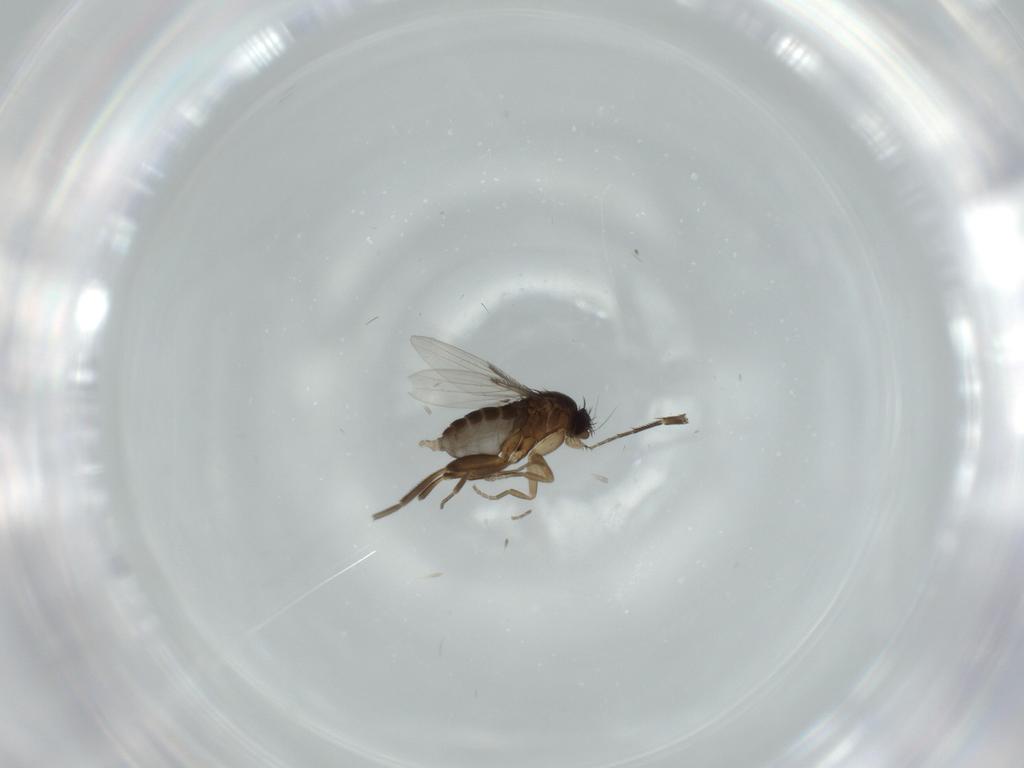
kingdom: Animalia
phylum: Arthropoda
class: Insecta
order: Diptera
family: Phoridae
